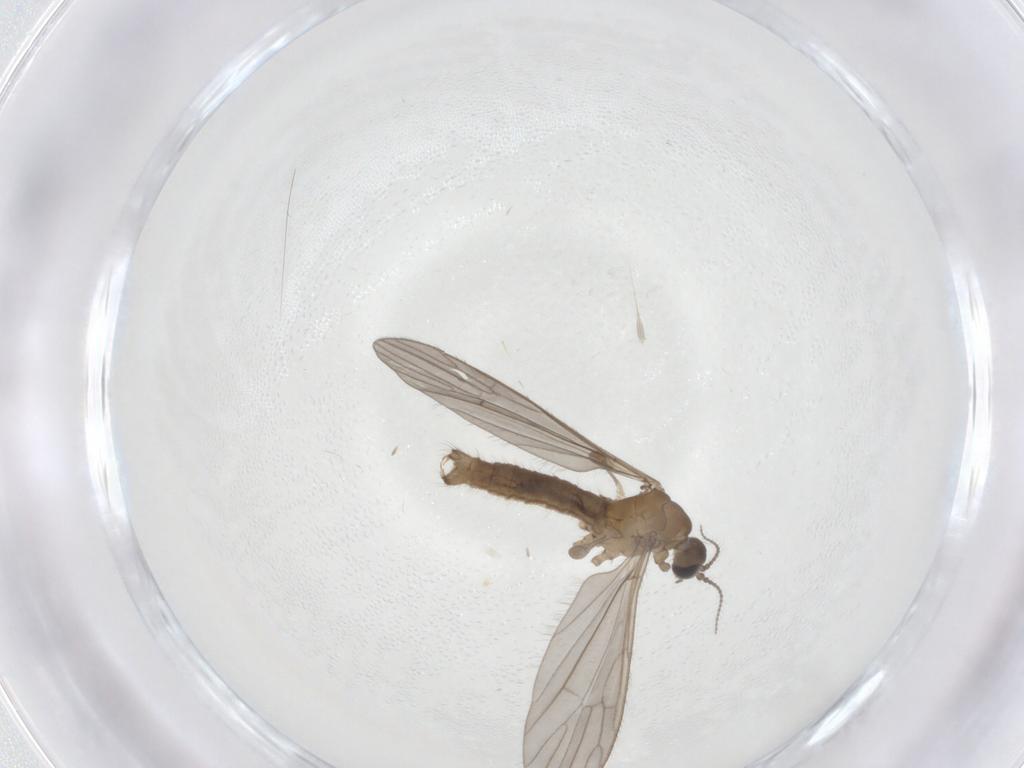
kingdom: Animalia
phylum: Arthropoda
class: Insecta
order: Diptera
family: Limoniidae
